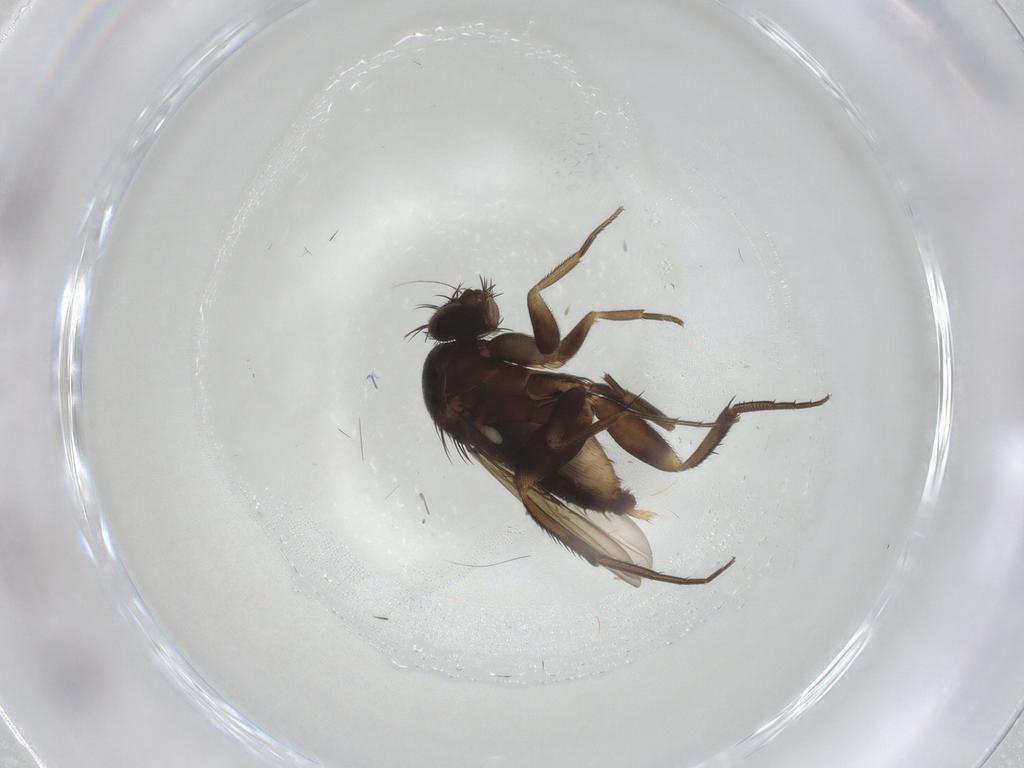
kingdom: Animalia
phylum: Arthropoda
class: Insecta
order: Diptera
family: Phoridae
